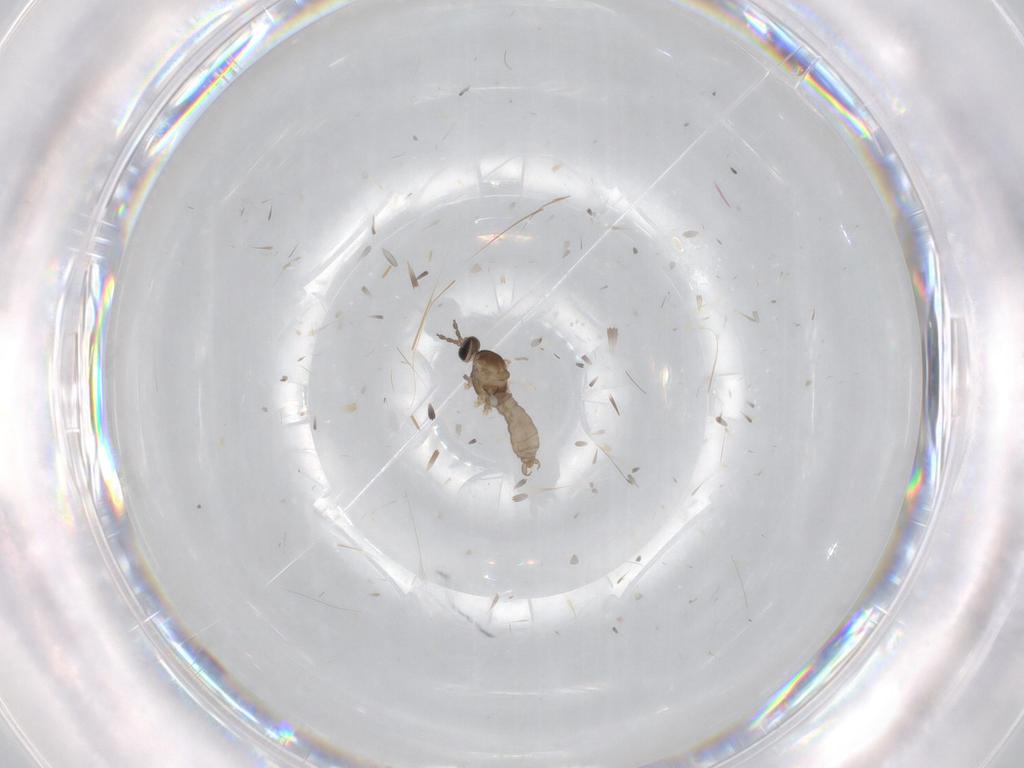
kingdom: Animalia
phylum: Arthropoda
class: Insecta
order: Diptera
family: Chironomidae
